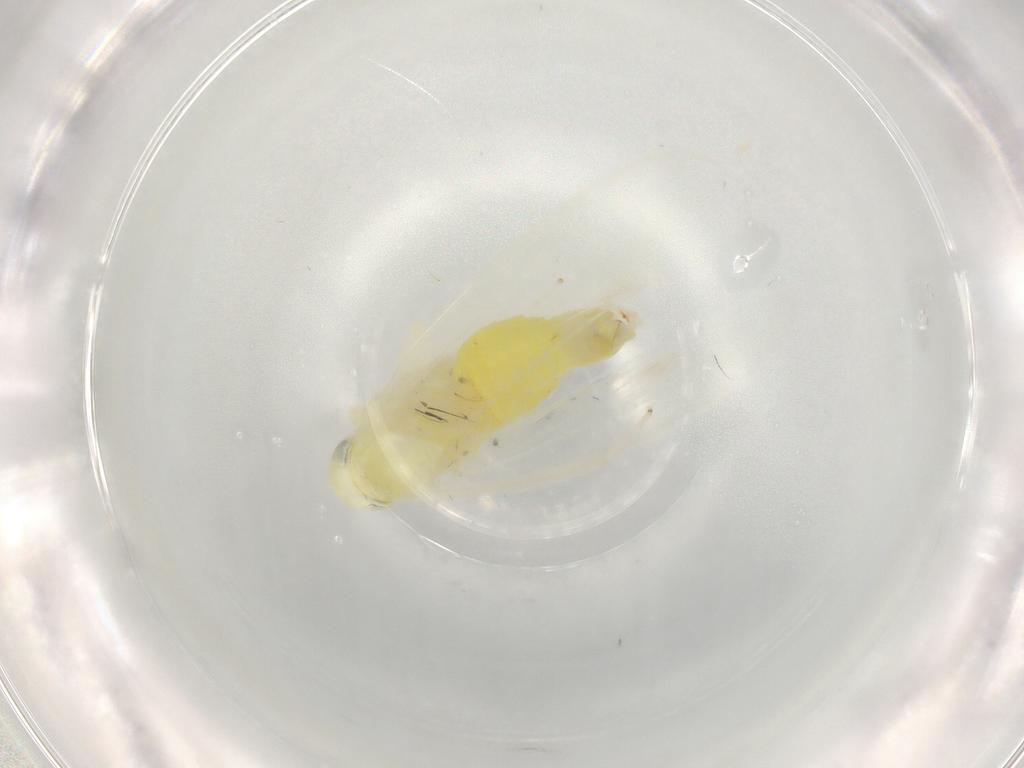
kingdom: Animalia
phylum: Arthropoda
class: Insecta
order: Hemiptera
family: Cicadellidae
